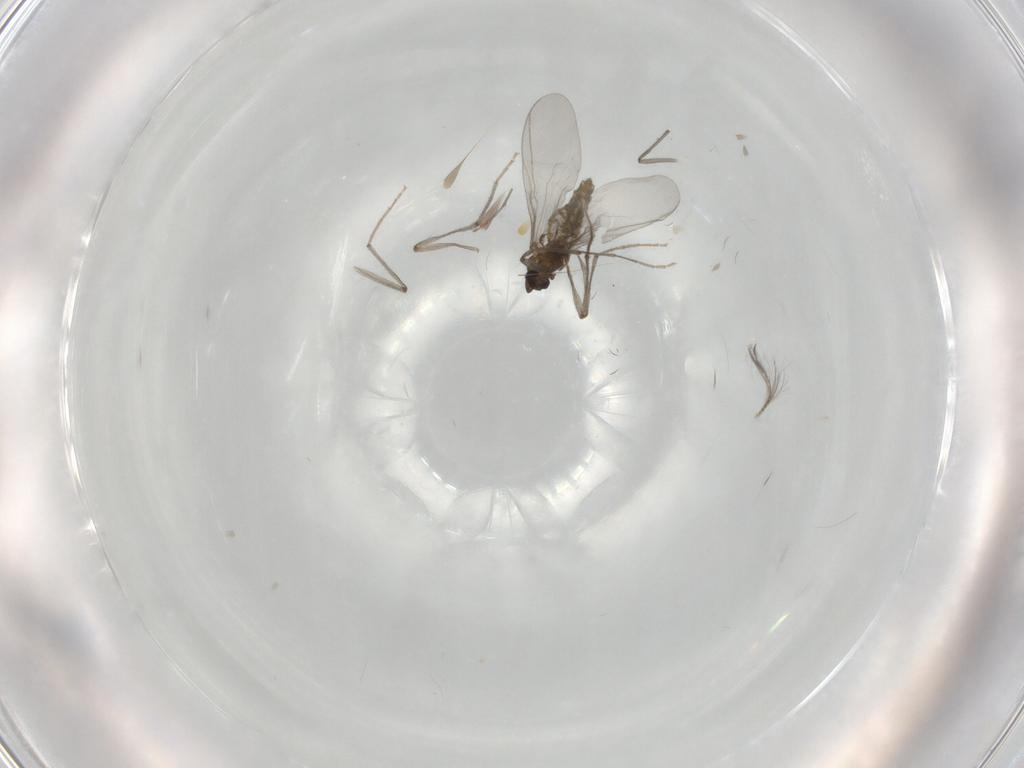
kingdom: Animalia
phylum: Arthropoda
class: Insecta
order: Diptera
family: Chironomidae
